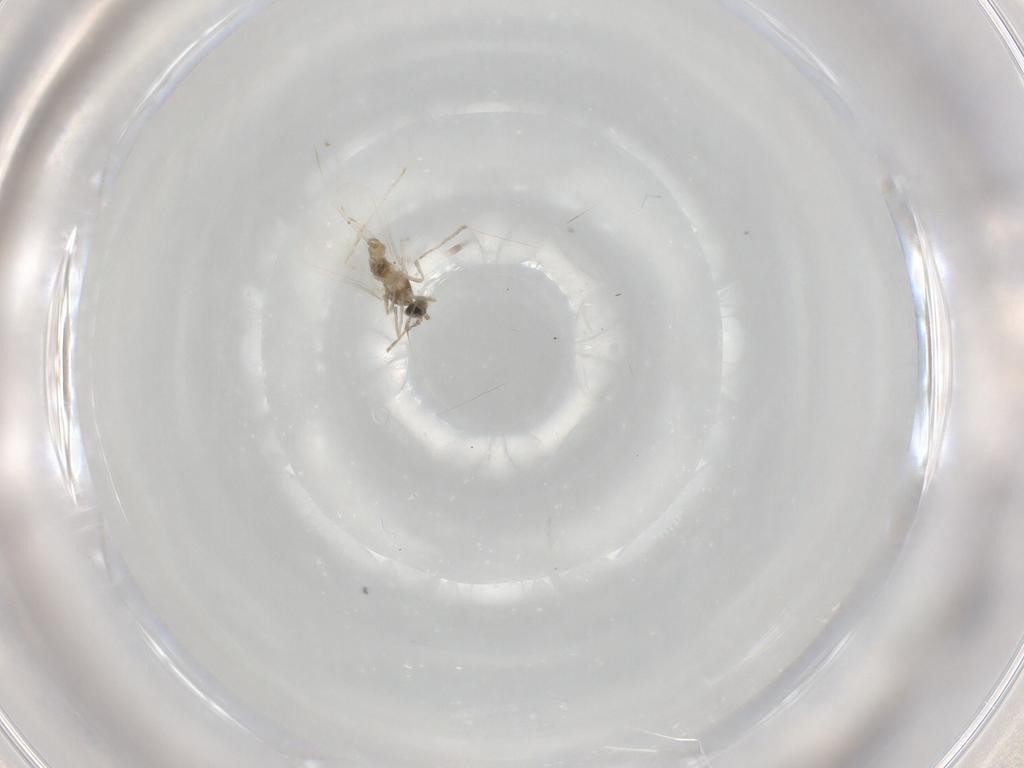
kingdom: Animalia
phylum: Arthropoda
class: Insecta
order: Diptera
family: Cecidomyiidae
